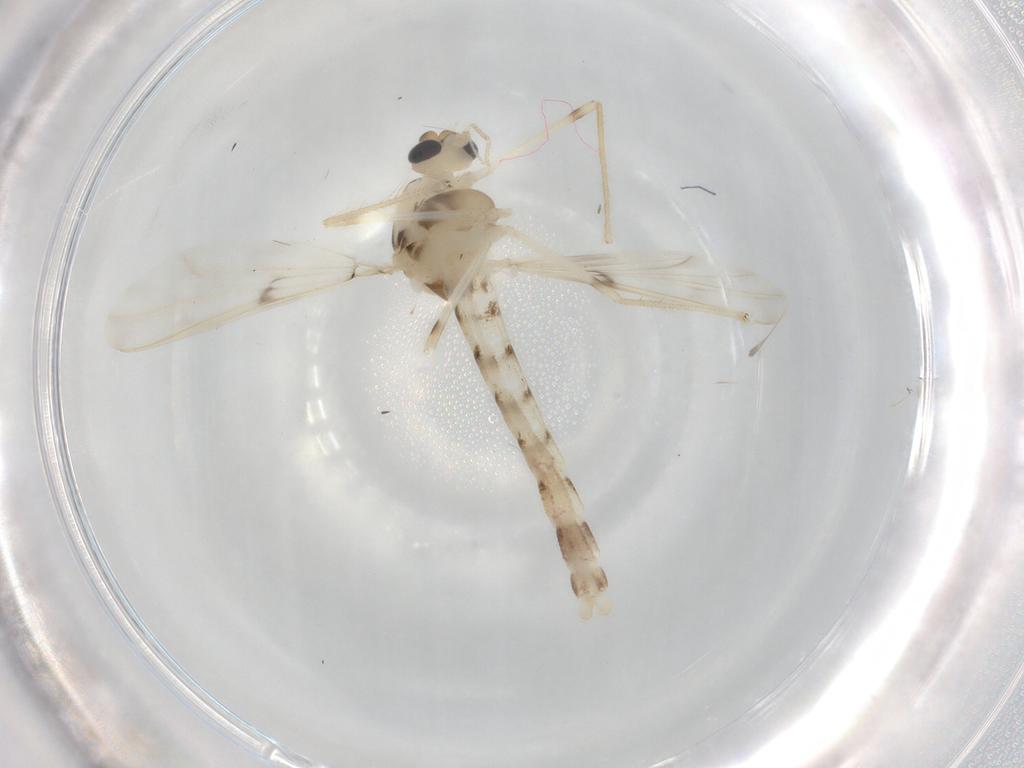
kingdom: Animalia
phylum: Arthropoda
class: Insecta
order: Diptera
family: Chironomidae
